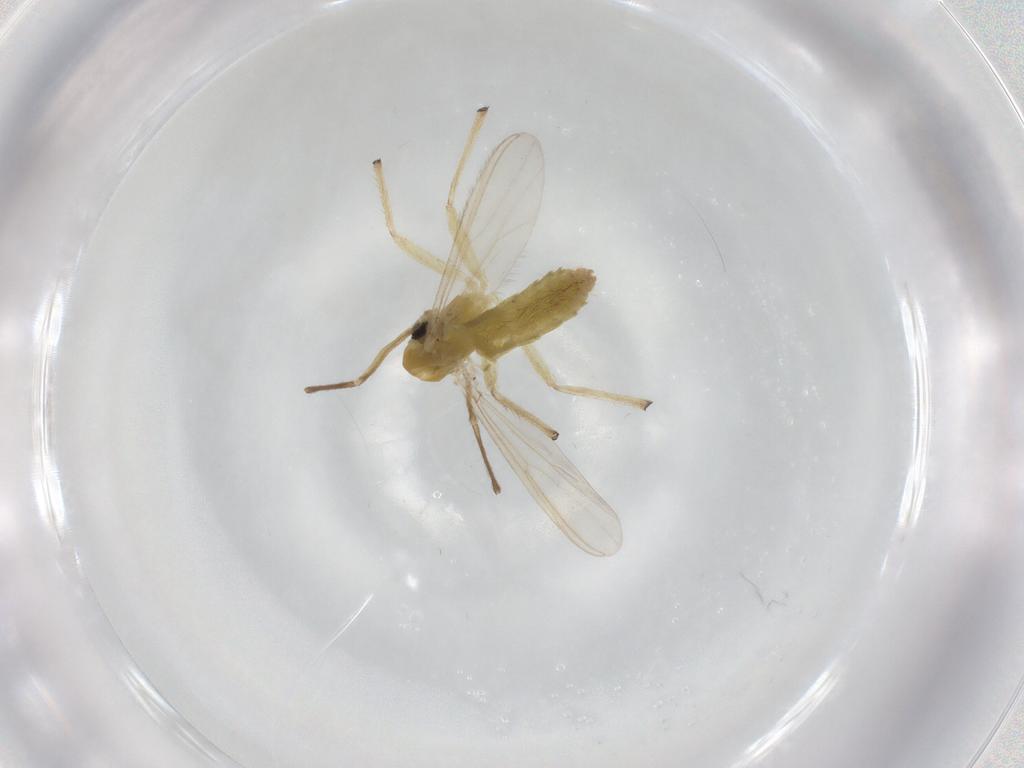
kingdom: Animalia
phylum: Arthropoda
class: Insecta
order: Diptera
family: Chironomidae
